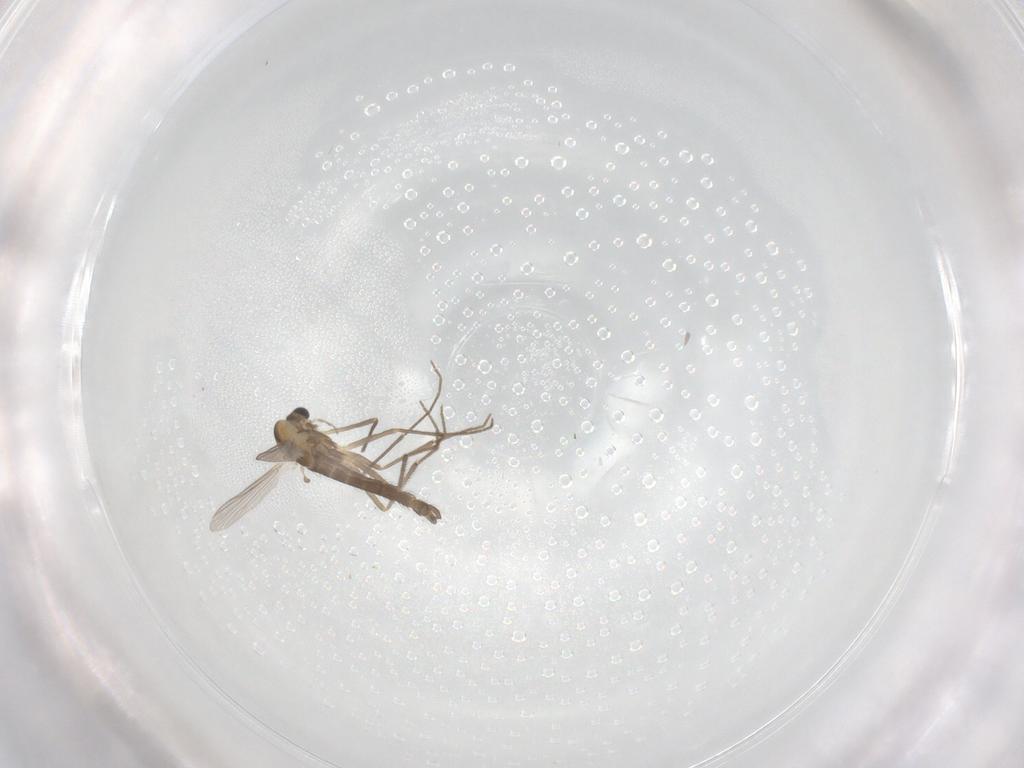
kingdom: Animalia
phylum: Arthropoda
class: Insecta
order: Diptera
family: Chironomidae
